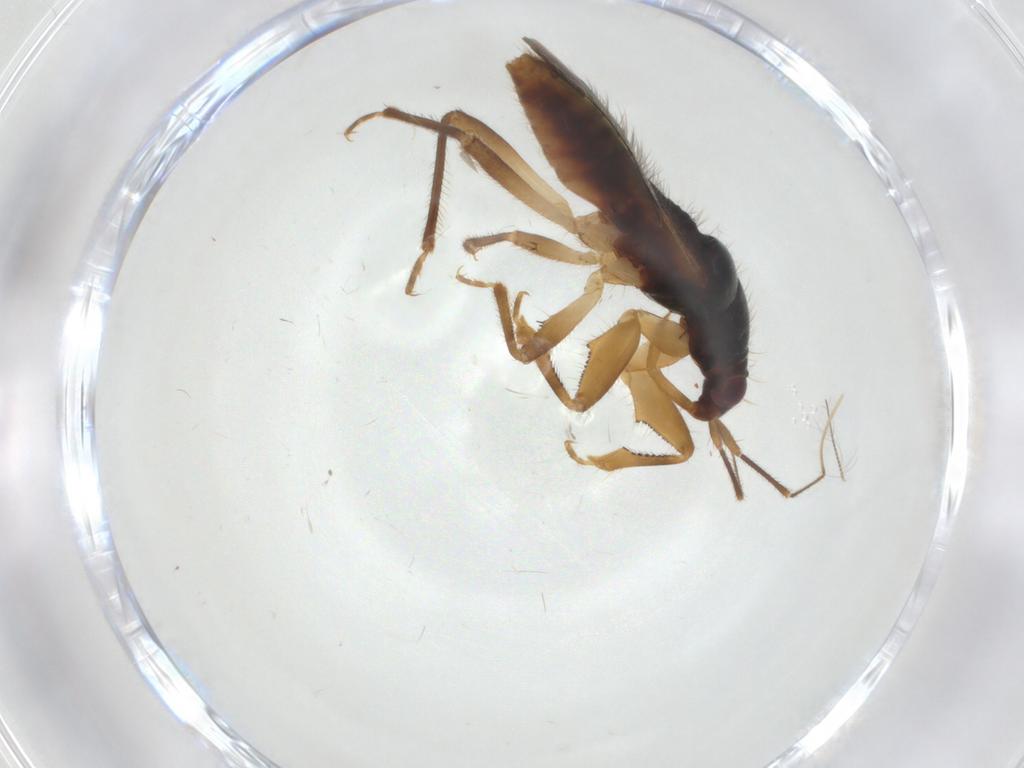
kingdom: Animalia
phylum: Arthropoda
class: Insecta
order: Hemiptera
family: Nabidae
